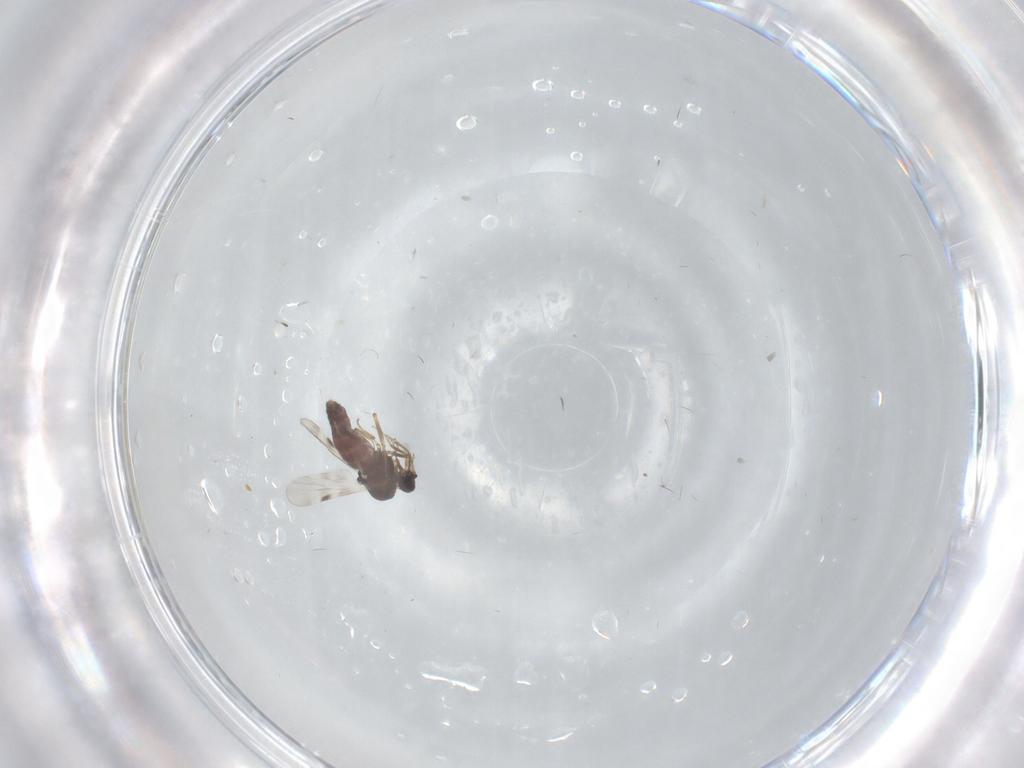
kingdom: Animalia
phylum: Arthropoda
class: Insecta
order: Diptera
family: Chironomidae
